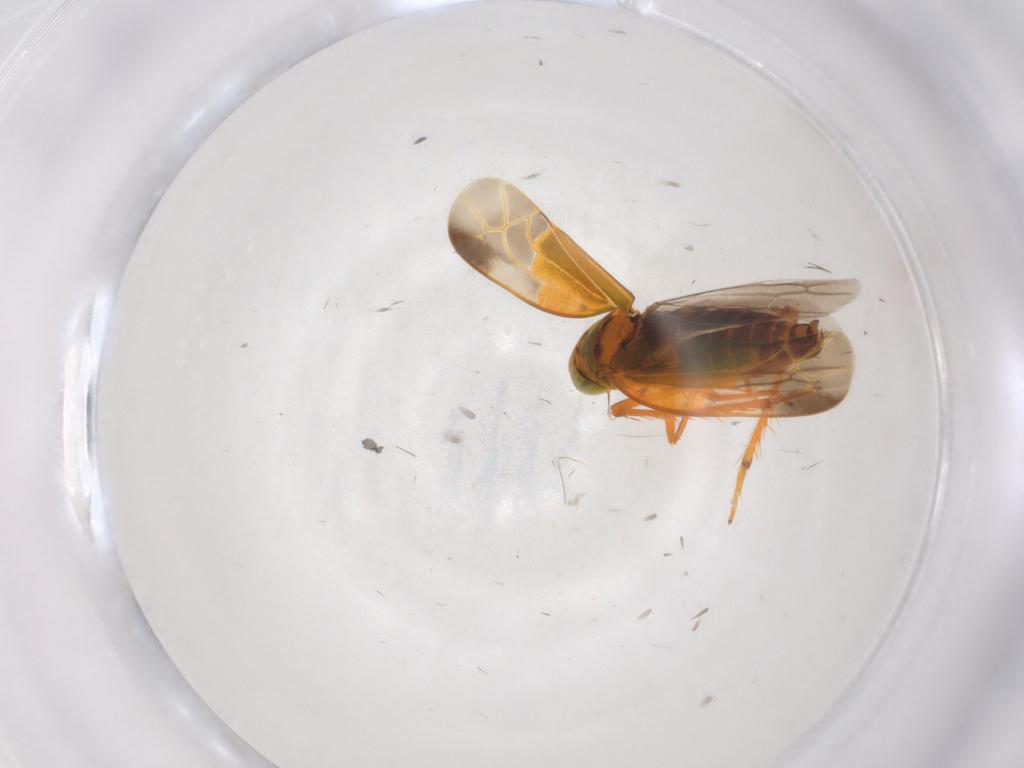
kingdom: Animalia
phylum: Arthropoda
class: Insecta
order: Hemiptera
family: Cicadellidae
